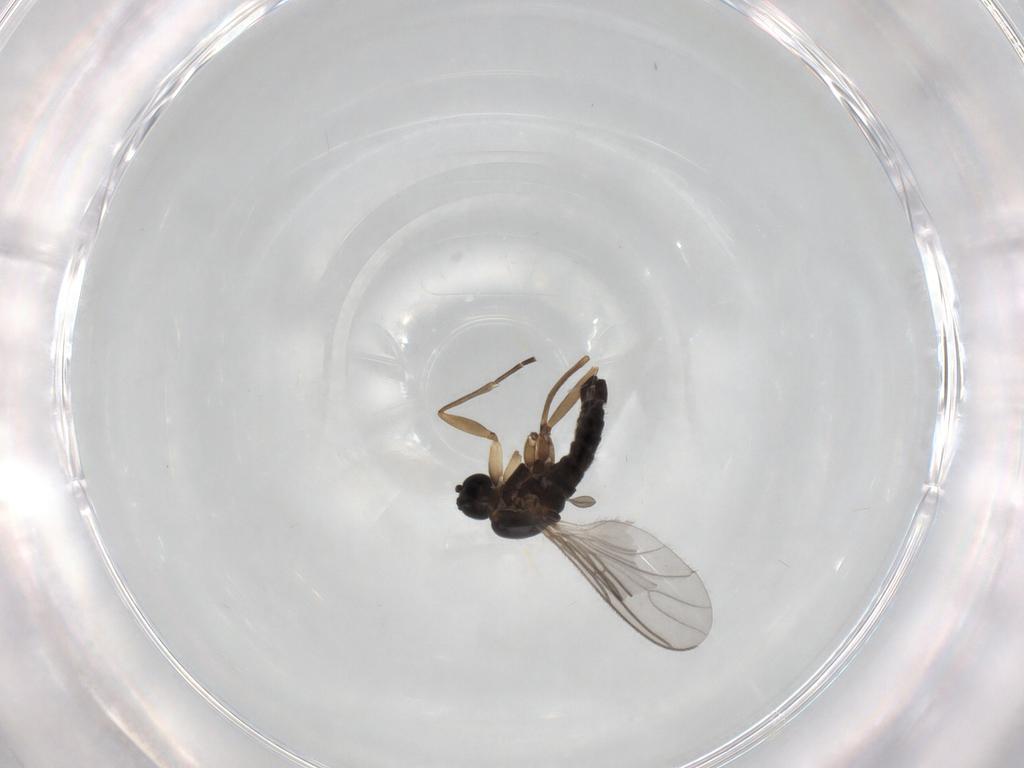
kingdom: Animalia
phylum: Arthropoda
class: Insecta
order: Diptera
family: Sciaridae
